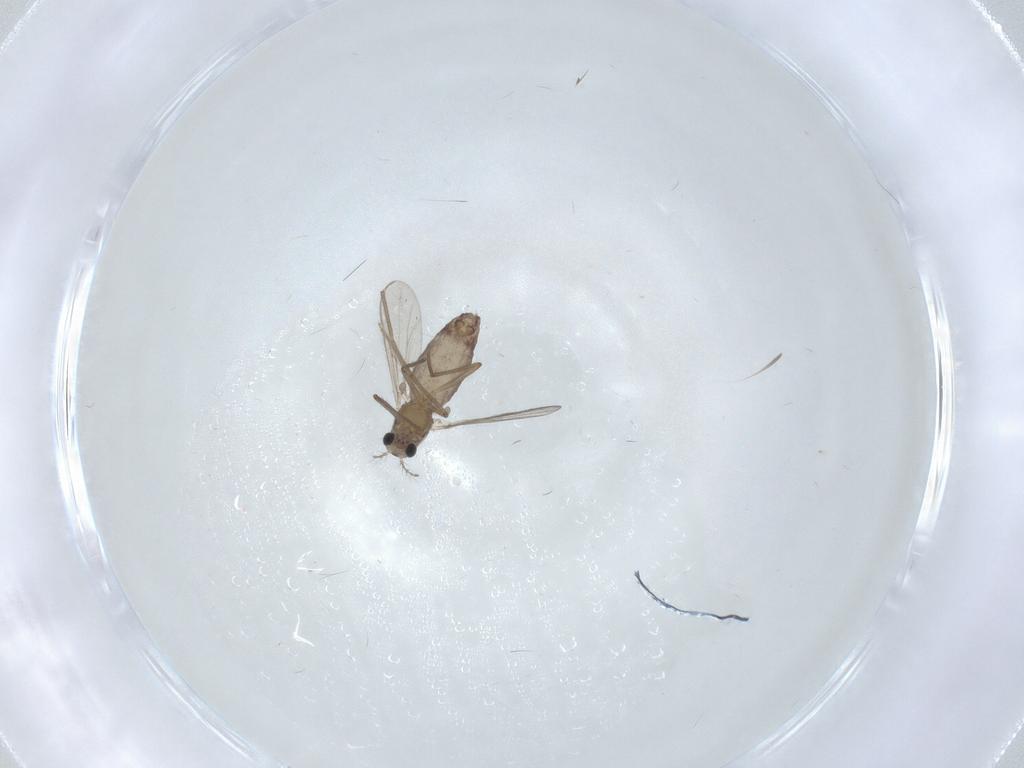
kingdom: Animalia
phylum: Arthropoda
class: Insecta
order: Diptera
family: Chironomidae
